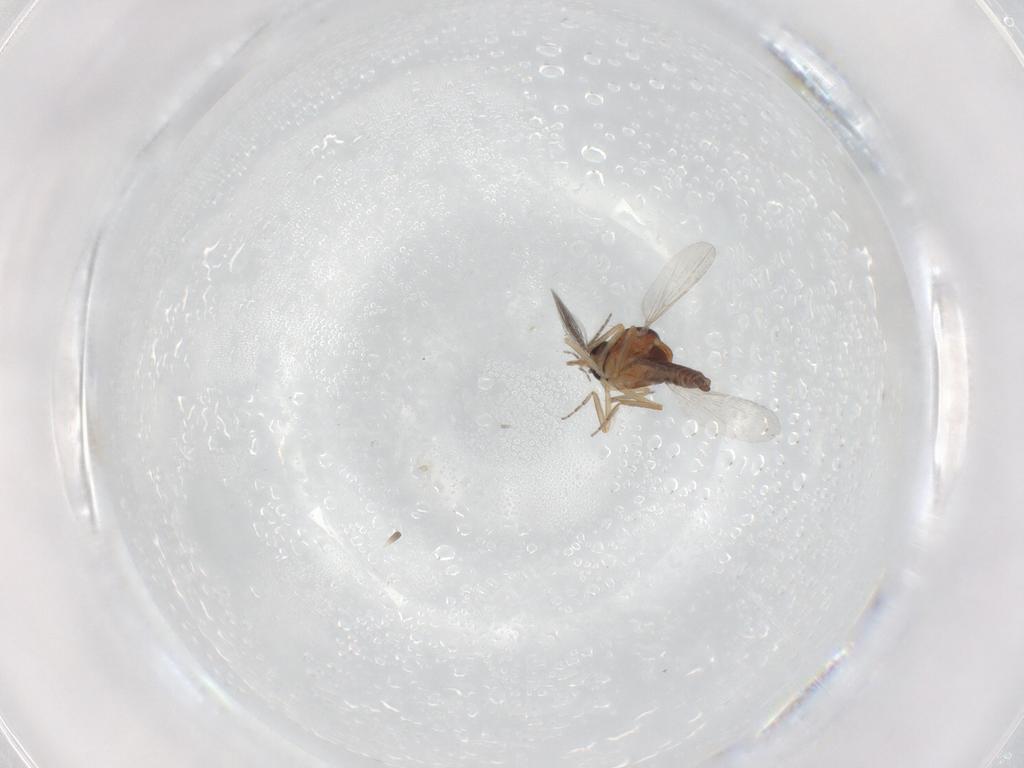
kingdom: Animalia
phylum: Arthropoda
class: Insecta
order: Diptera
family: Ceratopogonidae
